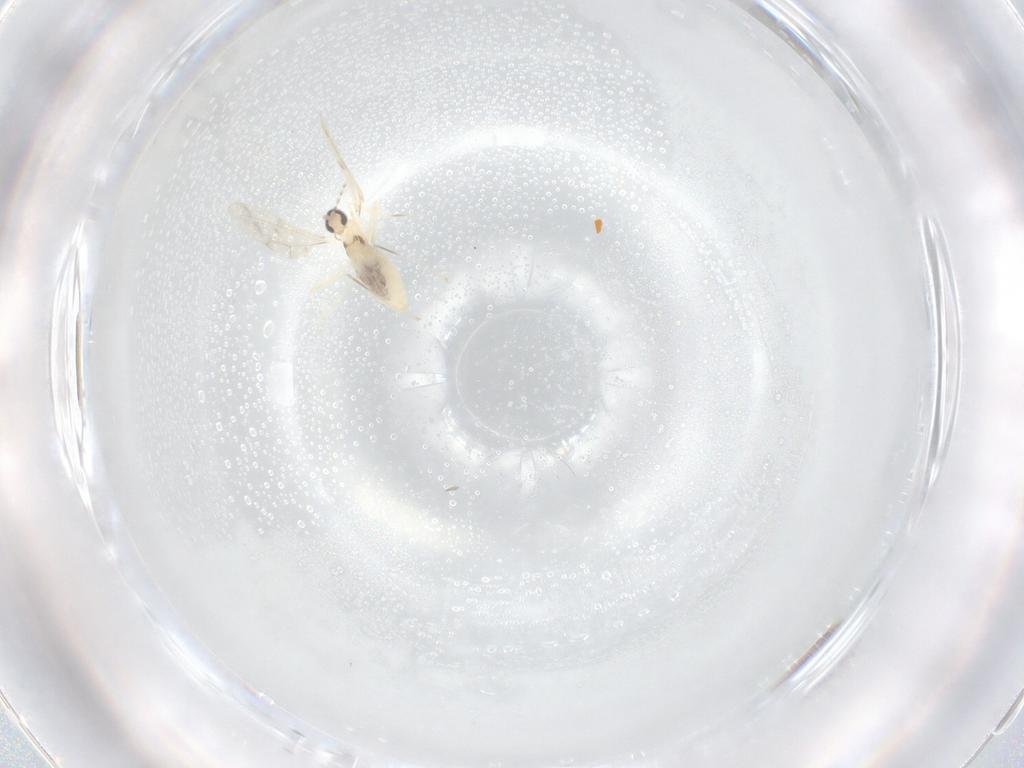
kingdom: Animalia
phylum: Arthropoda
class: Insecta
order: Diptera
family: Cecidomyiidae
